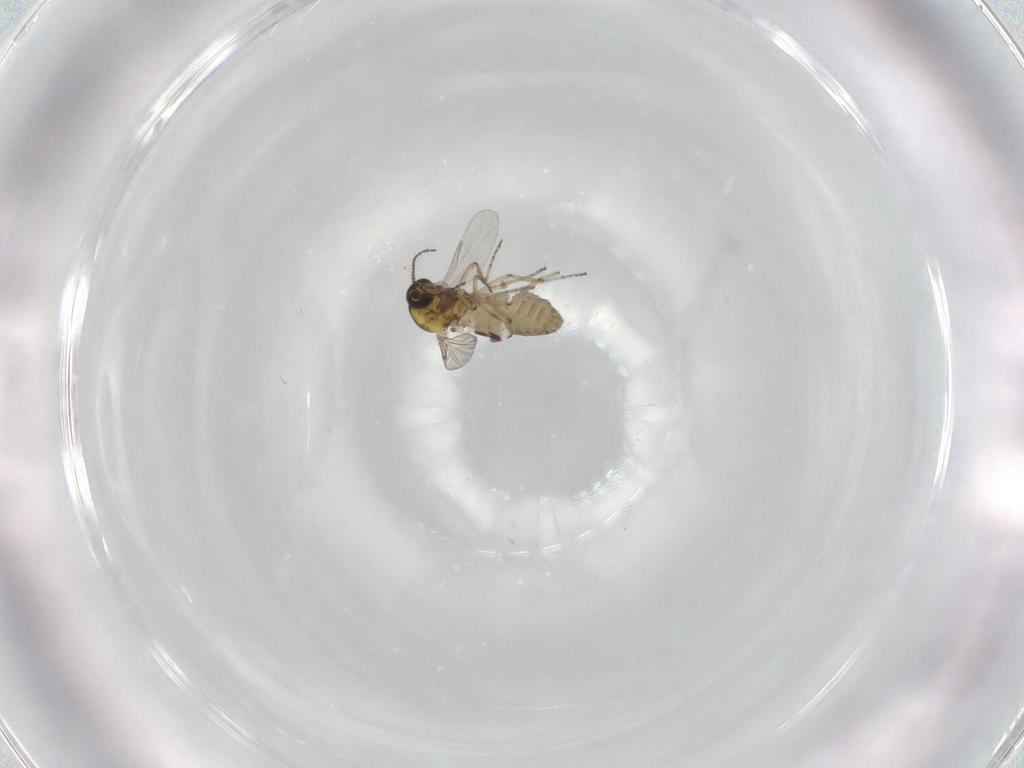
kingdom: Animalia
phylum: Arthropoda
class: Insecta
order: Diptera
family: Ceratopogonidae
